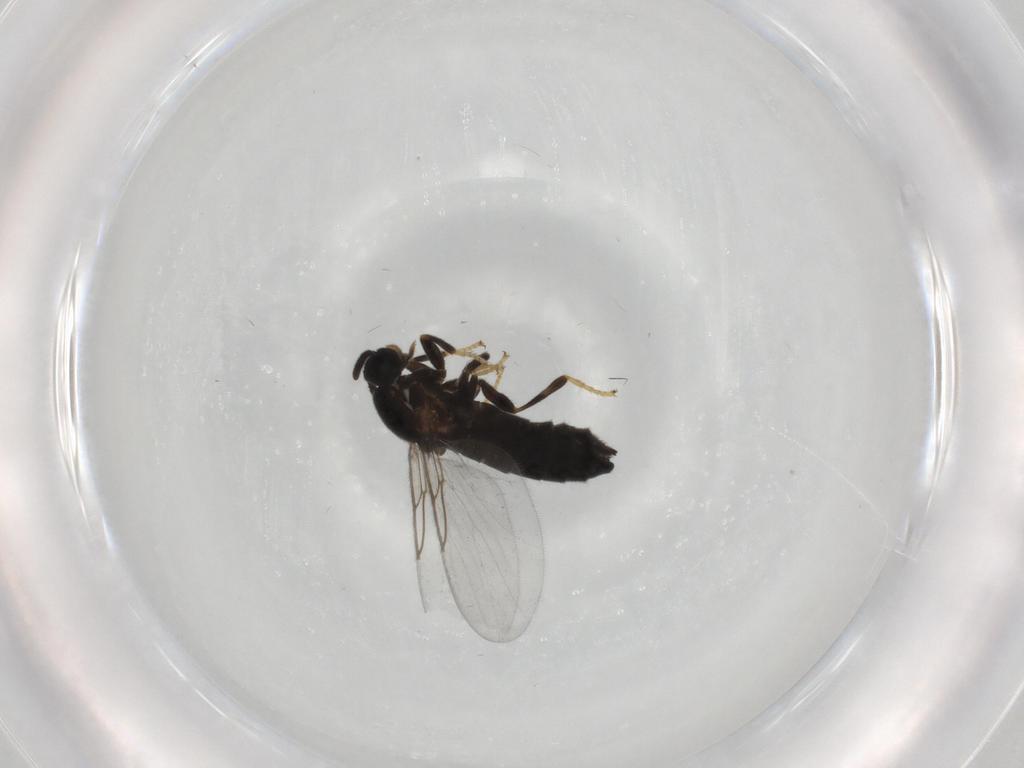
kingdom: Animalia
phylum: Arthropoda
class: Insecta
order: Diptera
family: Scatopsidae
